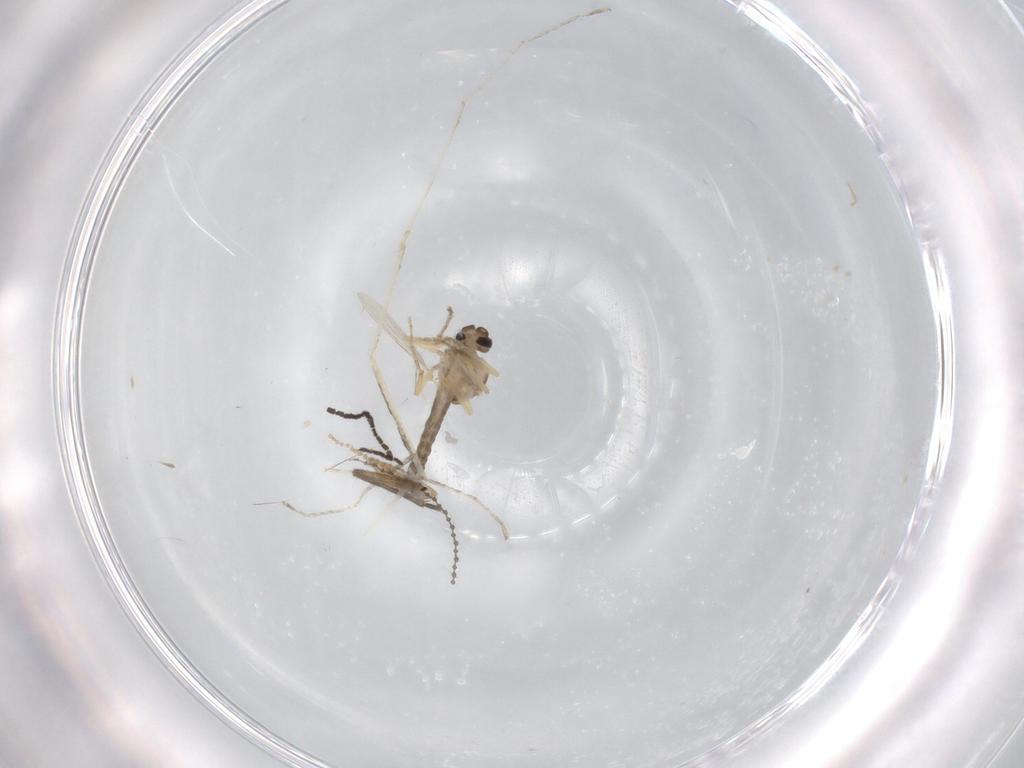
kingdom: Animalia
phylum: Arthropoda
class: Insecta
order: Diptera
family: Ceratopogonidae
